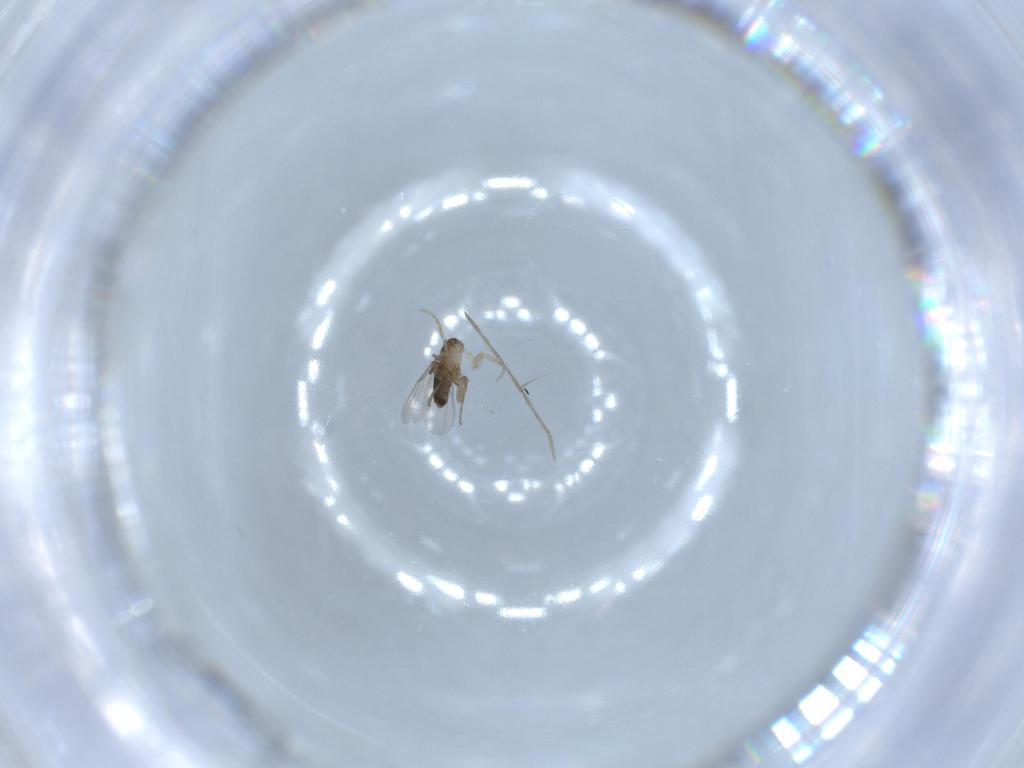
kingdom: Animalia
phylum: Arthropoda
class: Insecta
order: Diptera
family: Phoridae
